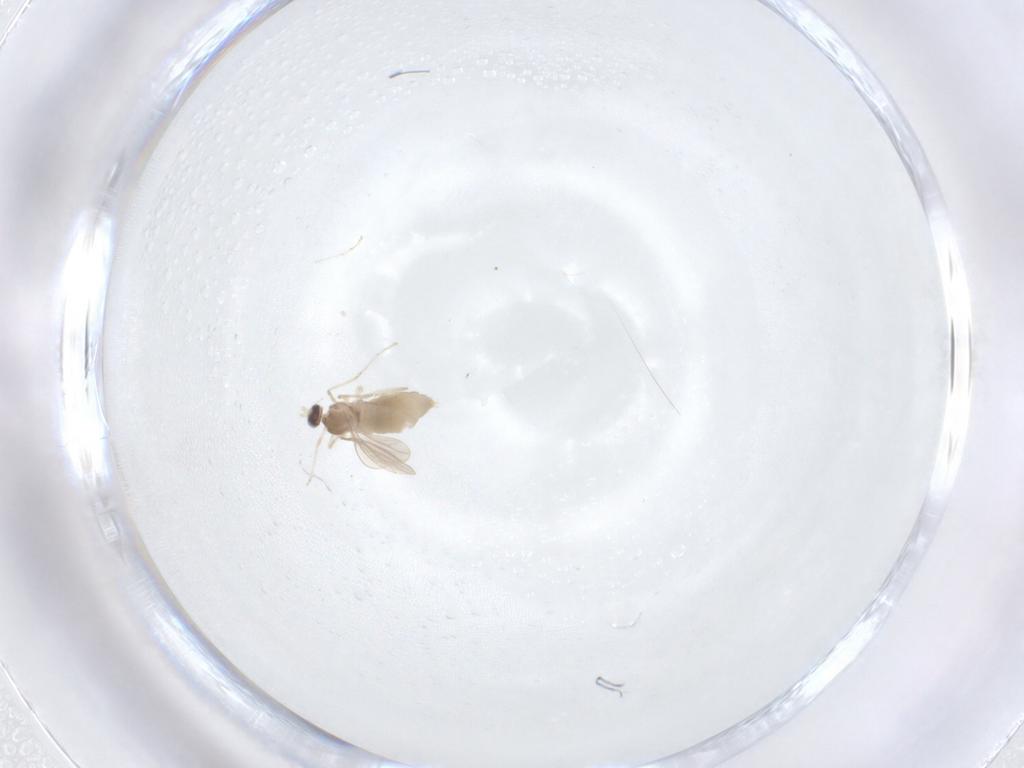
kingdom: Animalia
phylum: Arthropoda
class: Insecta
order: Diptera
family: Cecidomyiidae
